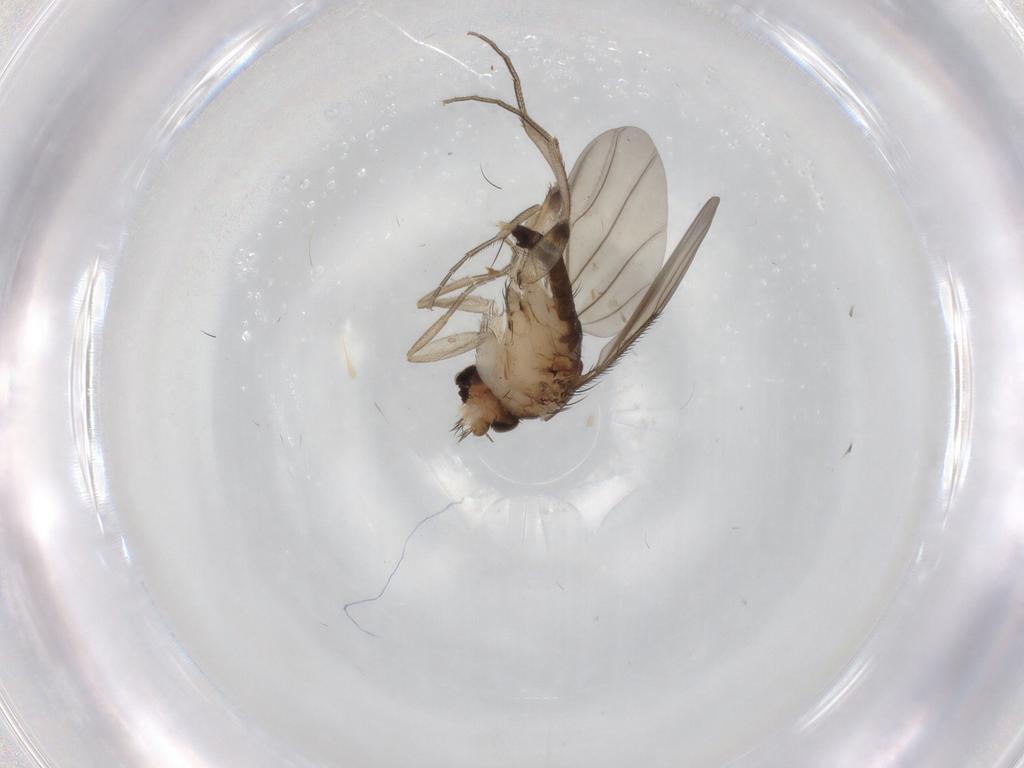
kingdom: Animalia
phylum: Arthropoda
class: Insecta
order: Diptera
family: Phoridae
